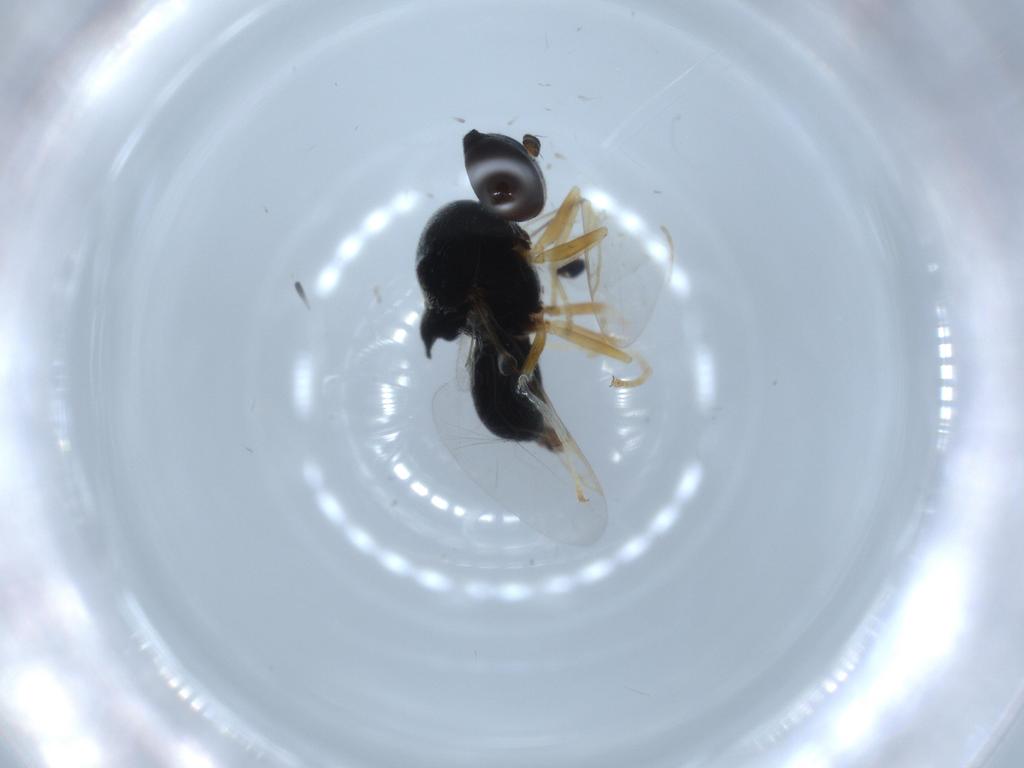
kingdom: Animalia
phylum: Arthropoda
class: Insecta
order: Diptera
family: Stratiomyidae
